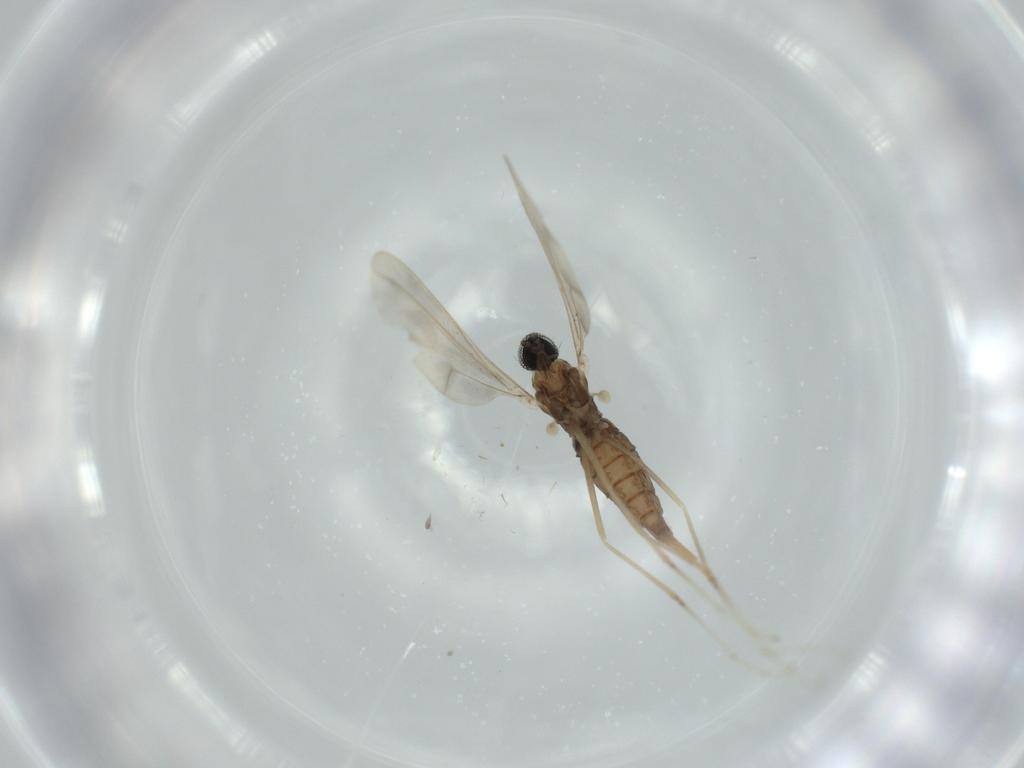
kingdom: Animalia
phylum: Arthropoda
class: Insecta
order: Diptera
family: Cecidomyiidae
